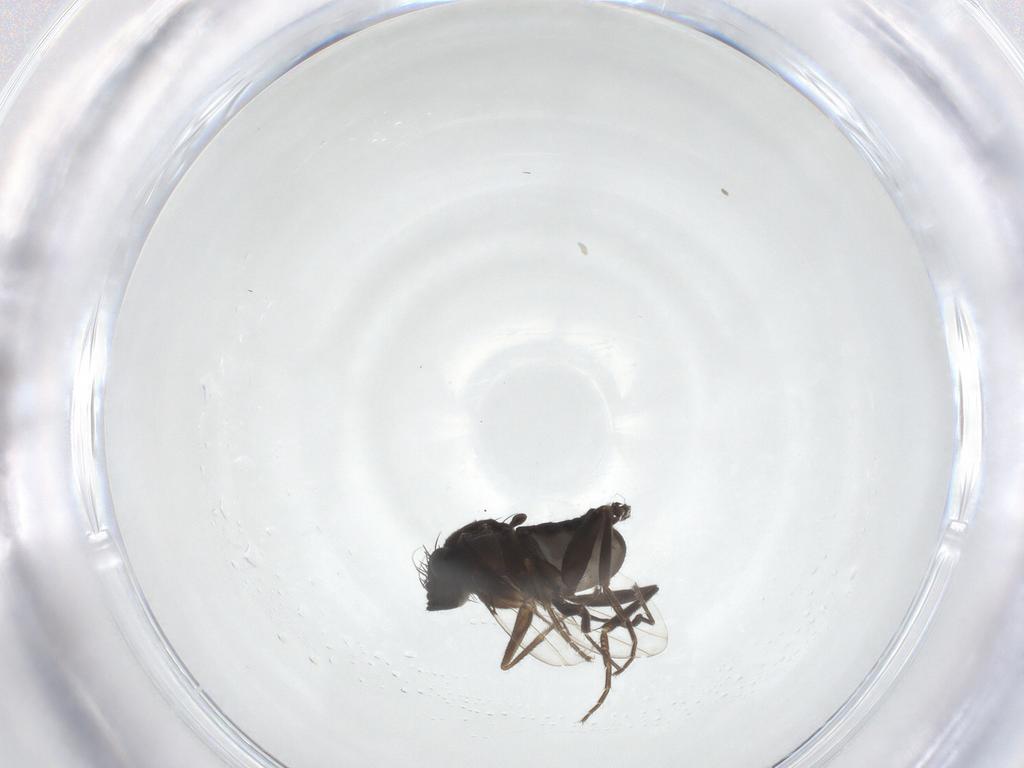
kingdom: Animalia
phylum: Arthropoda
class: Insecta
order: Diptera
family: Phoridae
